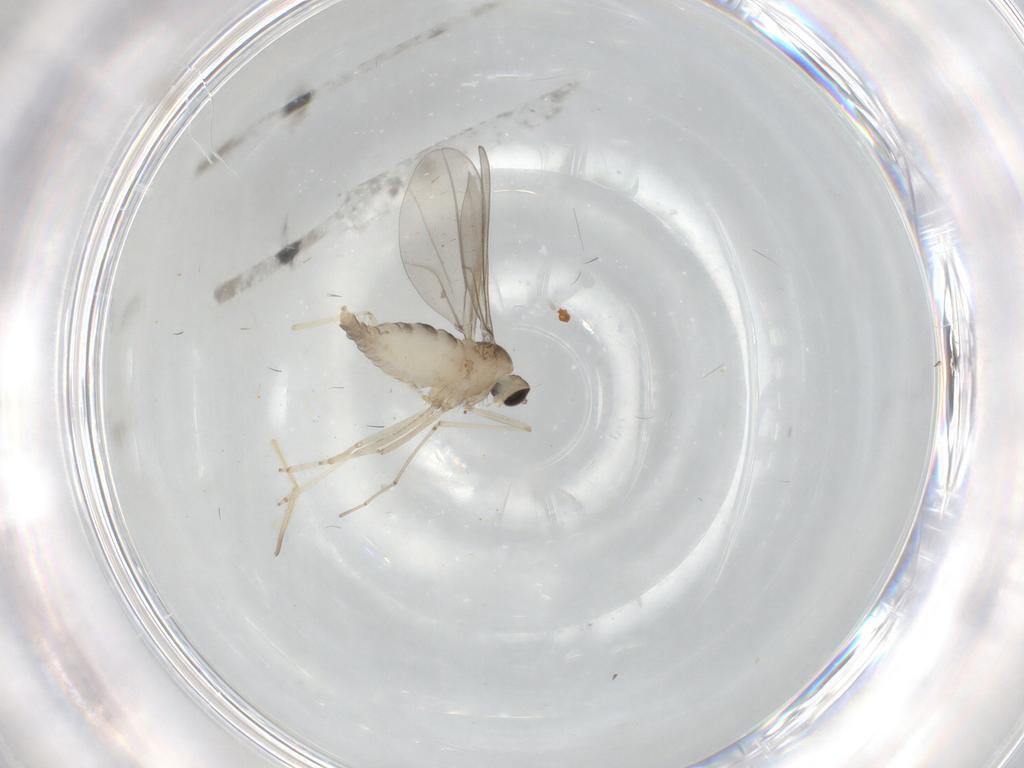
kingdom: Animalia
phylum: Arthropoda
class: Insecta
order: Diptera
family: Cecidomyiidae
